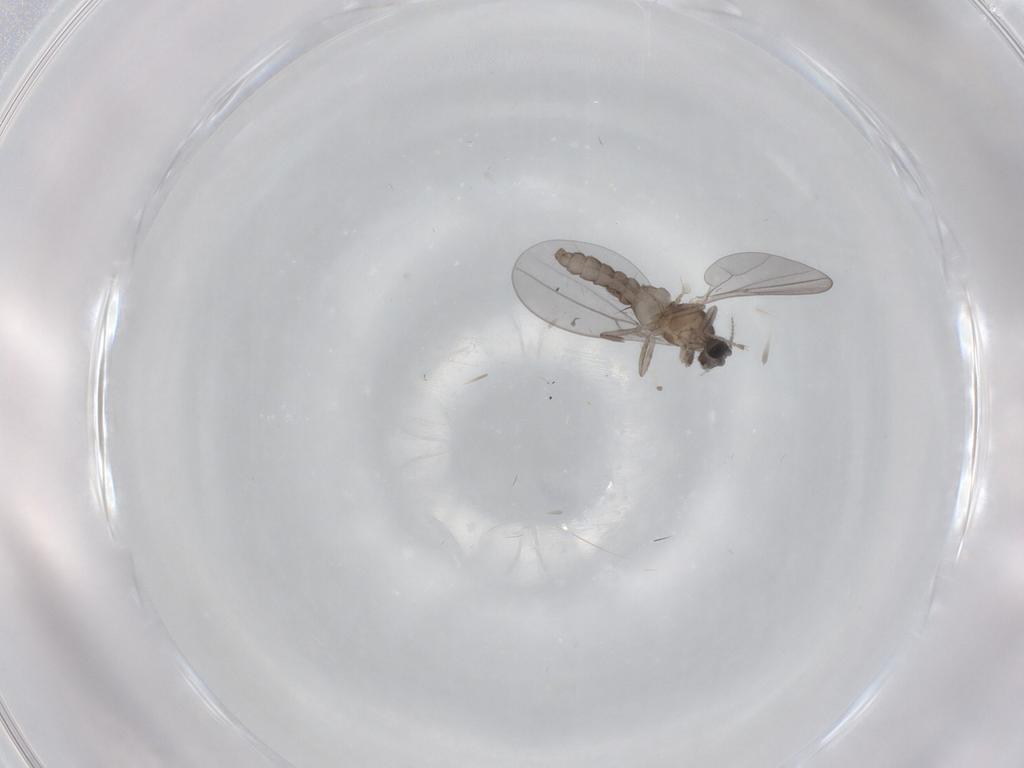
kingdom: Animalia
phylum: Arthropoda
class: Insecta
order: Diptera
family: Cecidomyiidae
